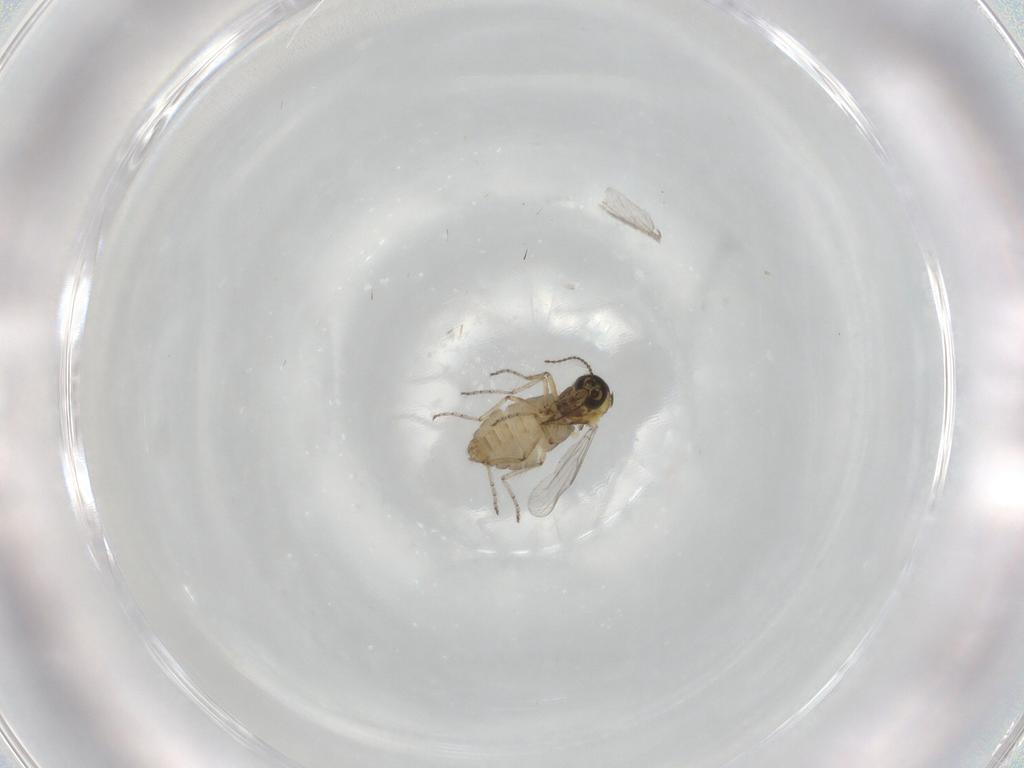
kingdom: Animalia
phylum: Arthropoda
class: Insecta
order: Diptera
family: Ceratopogonidae
